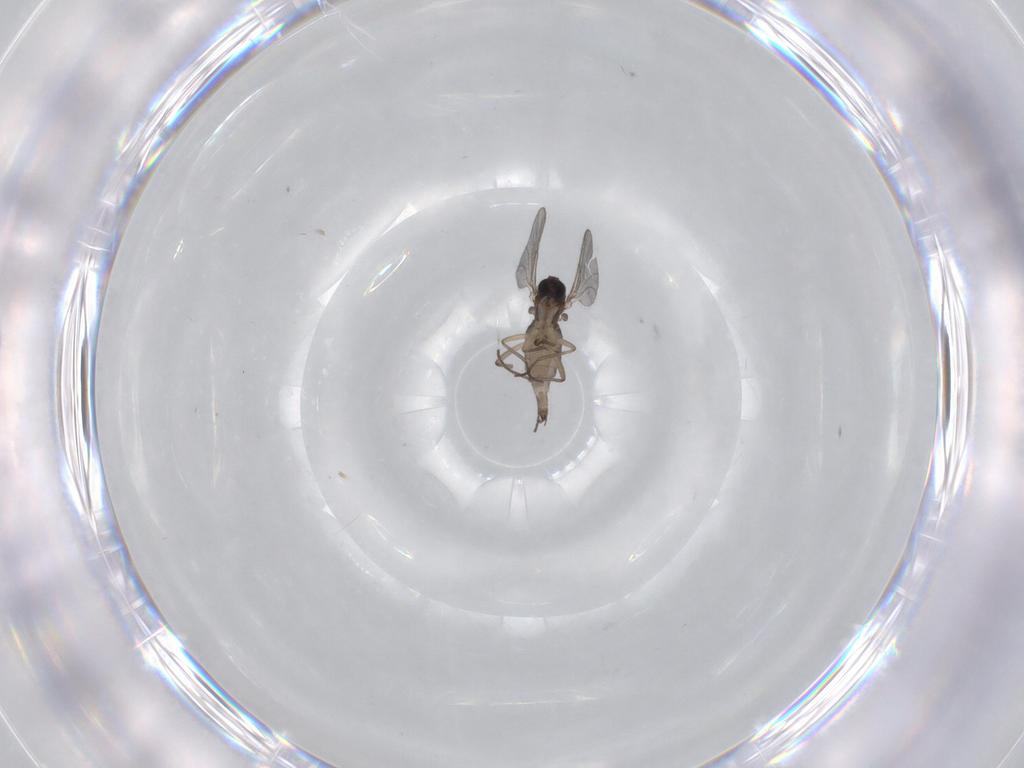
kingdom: Animalia
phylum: Arthropoda
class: Insecta
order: Diptera
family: Sciaridae
